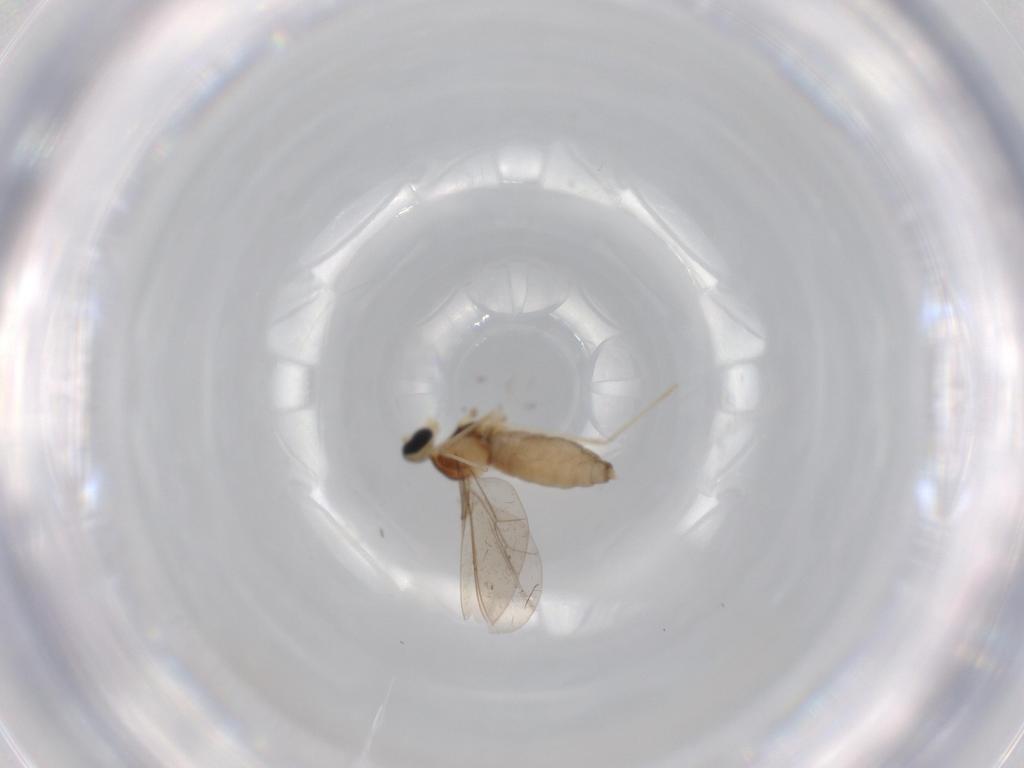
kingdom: Animalia
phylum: Arthropoda
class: Insecta
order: Diptera
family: Cecidomyiidae
